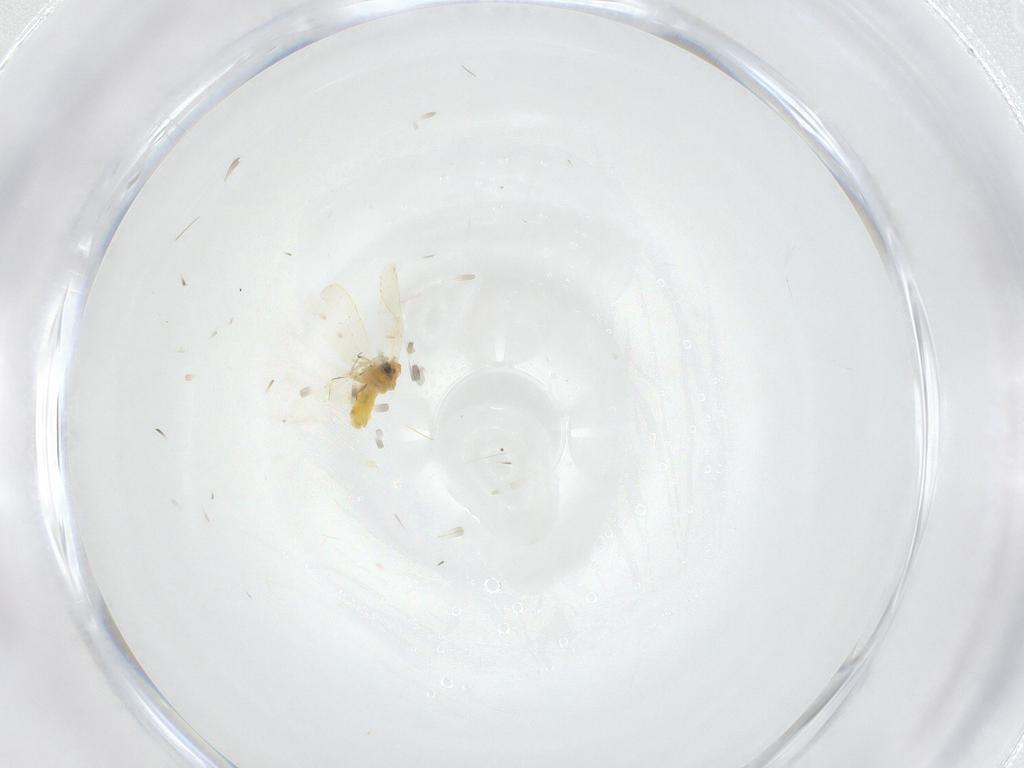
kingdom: Animalia
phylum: Arthropoda
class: Insecta
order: Hemiptera
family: Aleyrodidae
